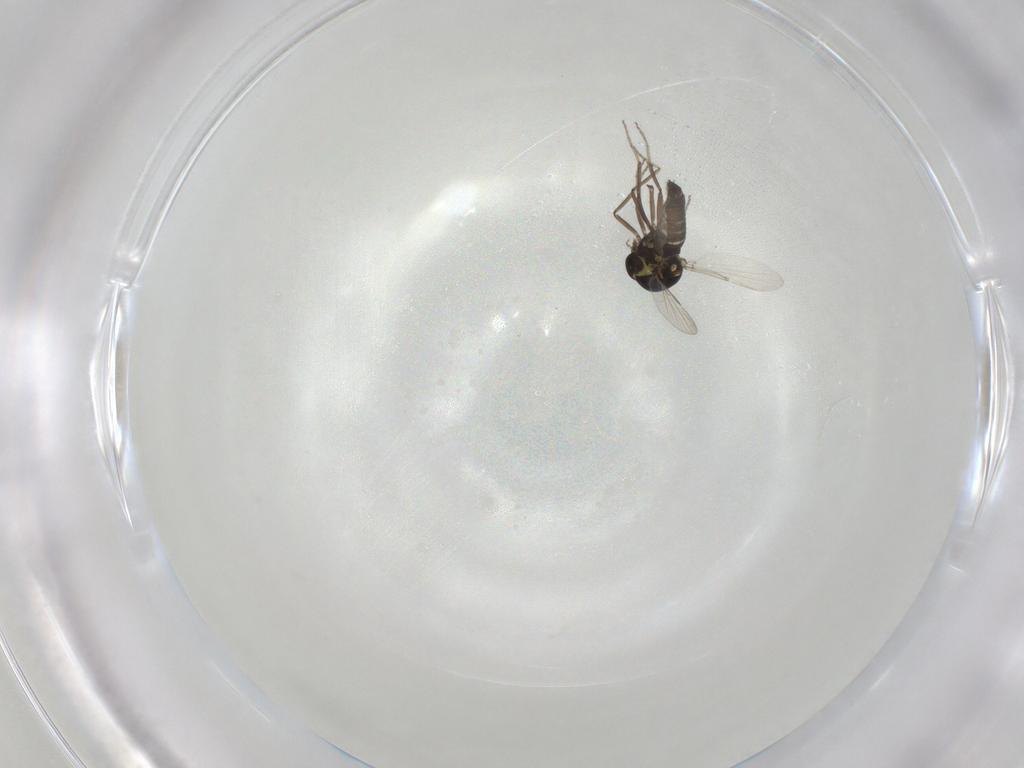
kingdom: Animalia
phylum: Arthropoda
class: Insecta
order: Diptera
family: Ceratopogonidae
